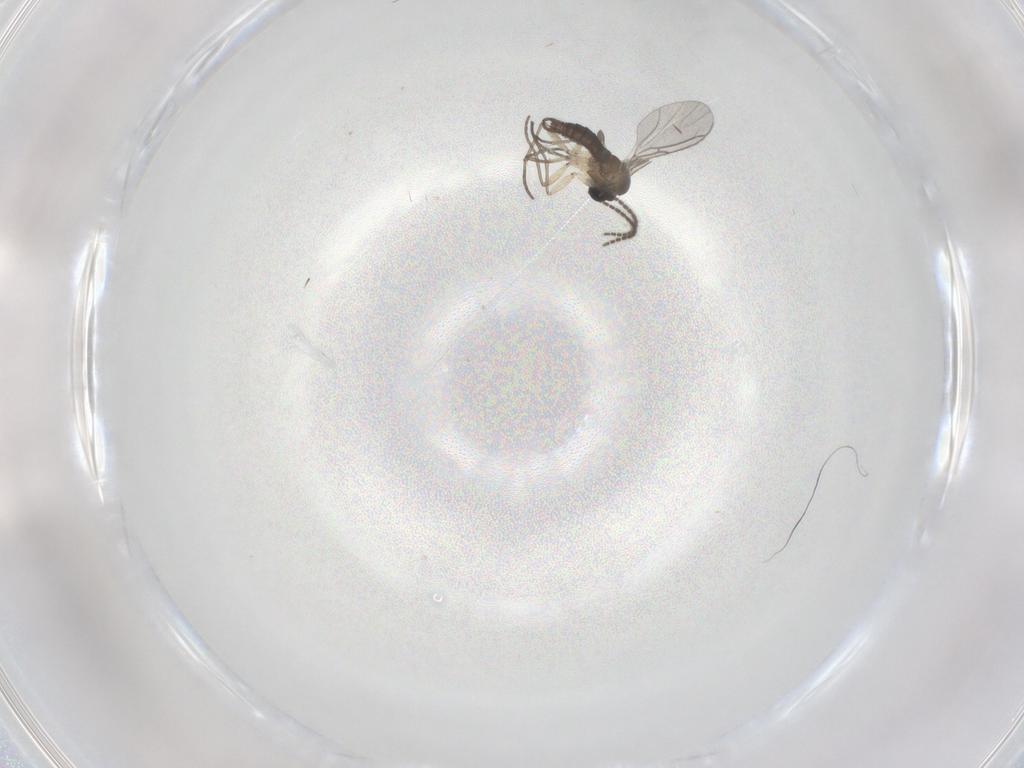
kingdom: Animalia
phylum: Arthropoda
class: Insecta
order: Diptera
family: Sciaridae
